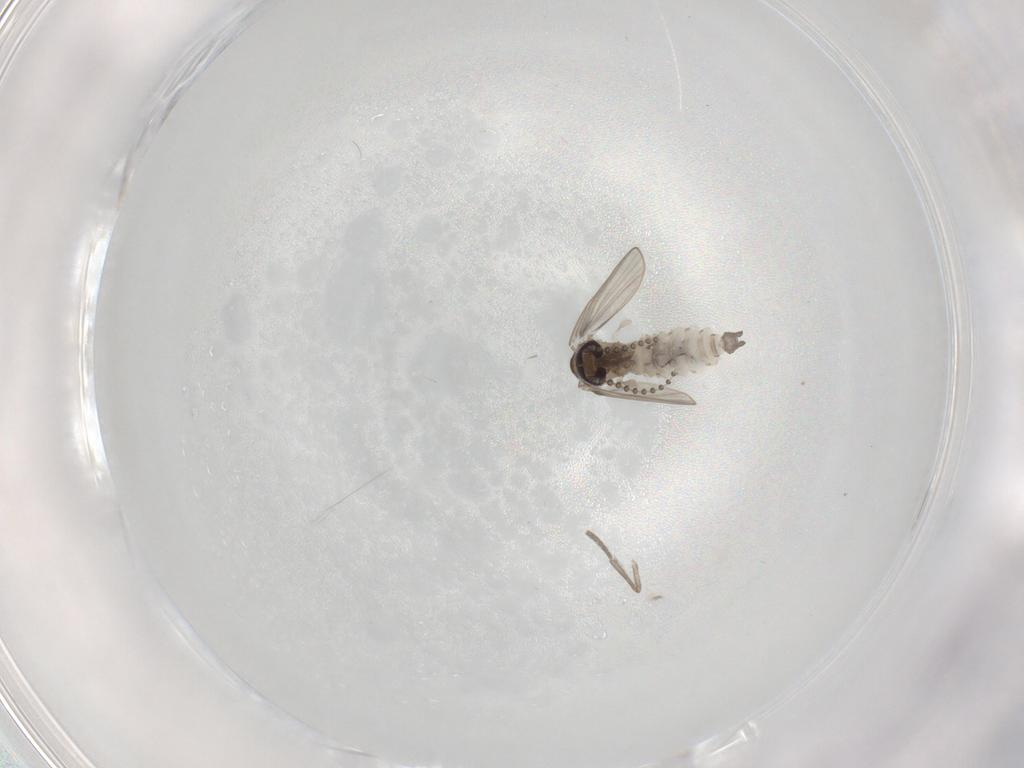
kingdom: Animalia
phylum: Arthropoda
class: Insecta
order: Diptera
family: Psychodidae
